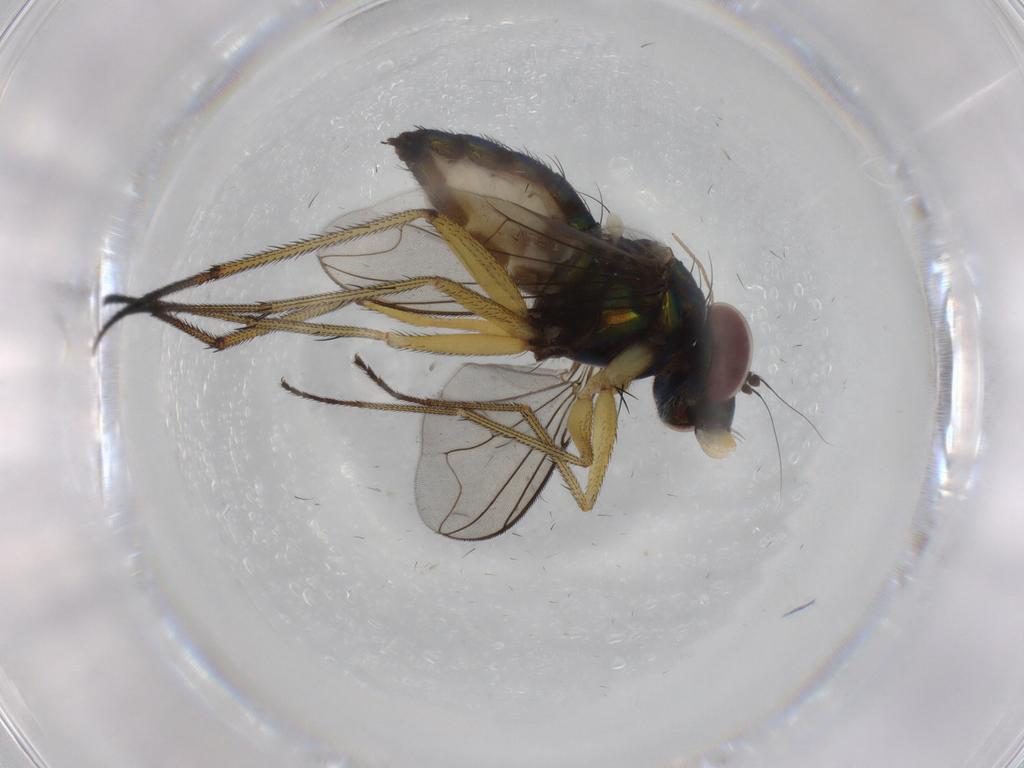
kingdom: Animalia
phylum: Arthropoda
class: Insecta
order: Diptera
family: Dolichopodidae
